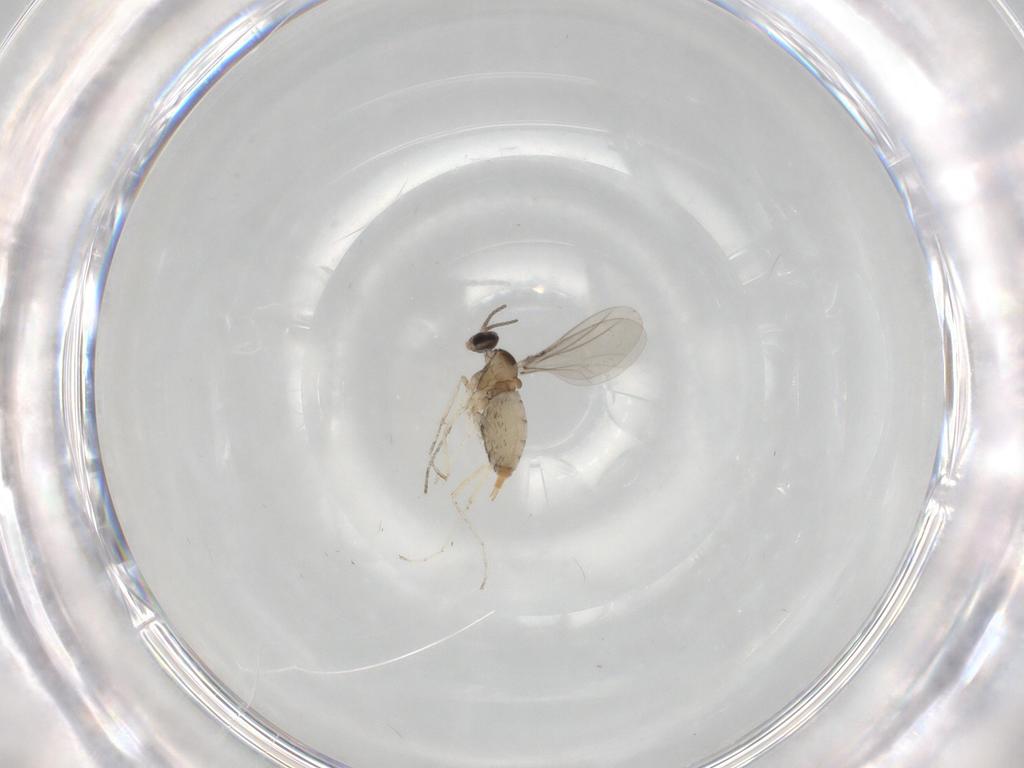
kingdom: Animalia
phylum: Arthropoda
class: Insecta
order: Diptera
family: Cecidomyiidae
